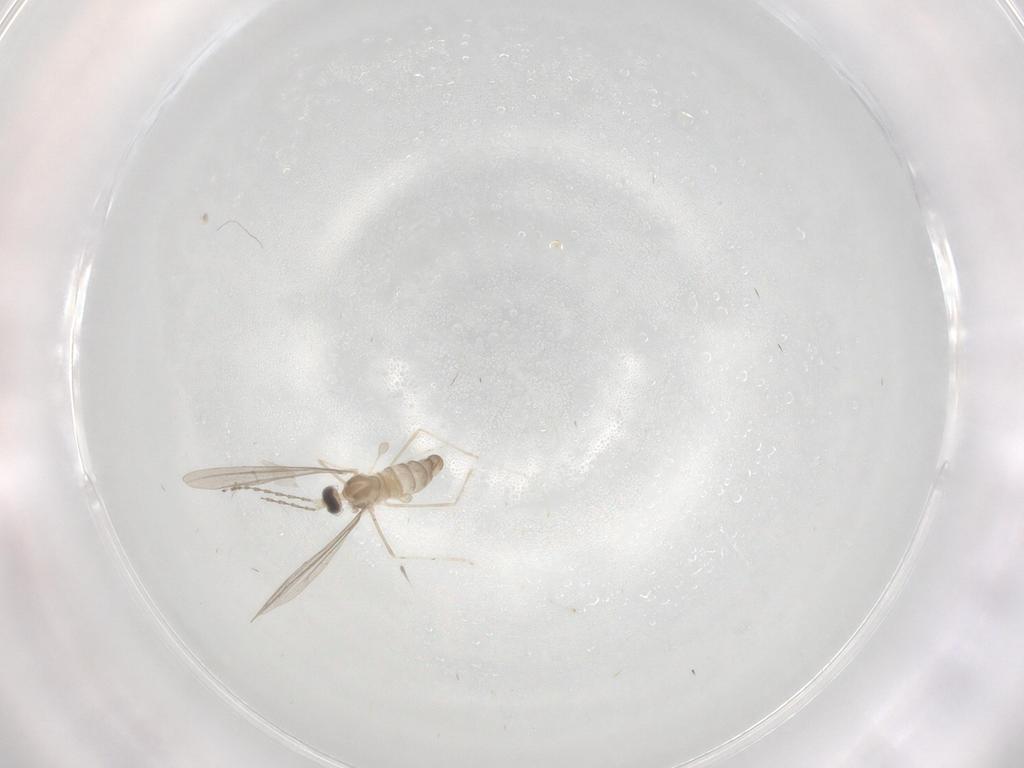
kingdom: Animalia
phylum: Arthropoda
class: Insecta
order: Diptera
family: Cecidomyiidae
